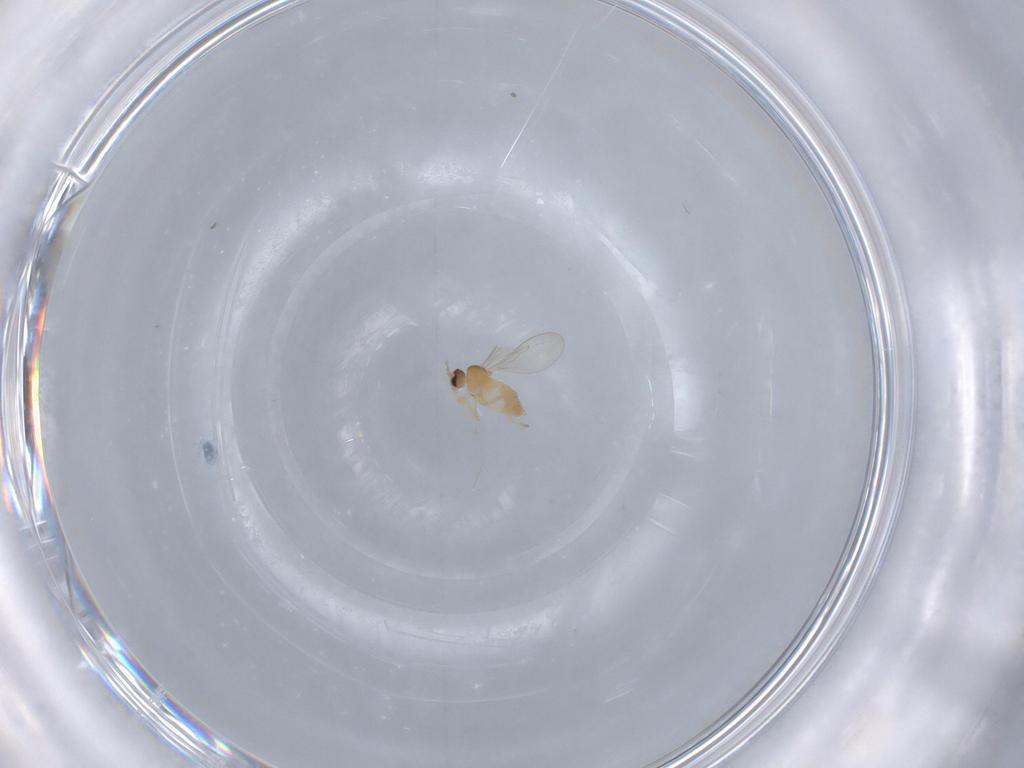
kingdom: Animalia
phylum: Arthropoda
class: Insecta
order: Diptera
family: Cecidomyiidae
